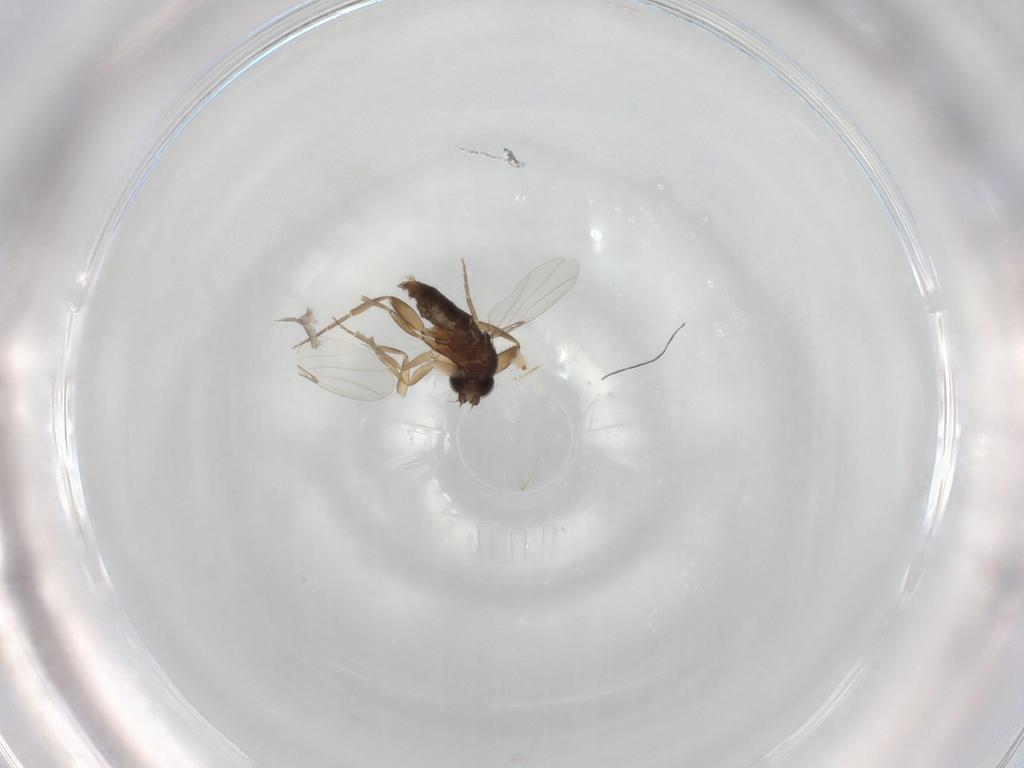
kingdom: Animalia
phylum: Arthropoda
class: Insecta
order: Diptera
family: Phoridae
